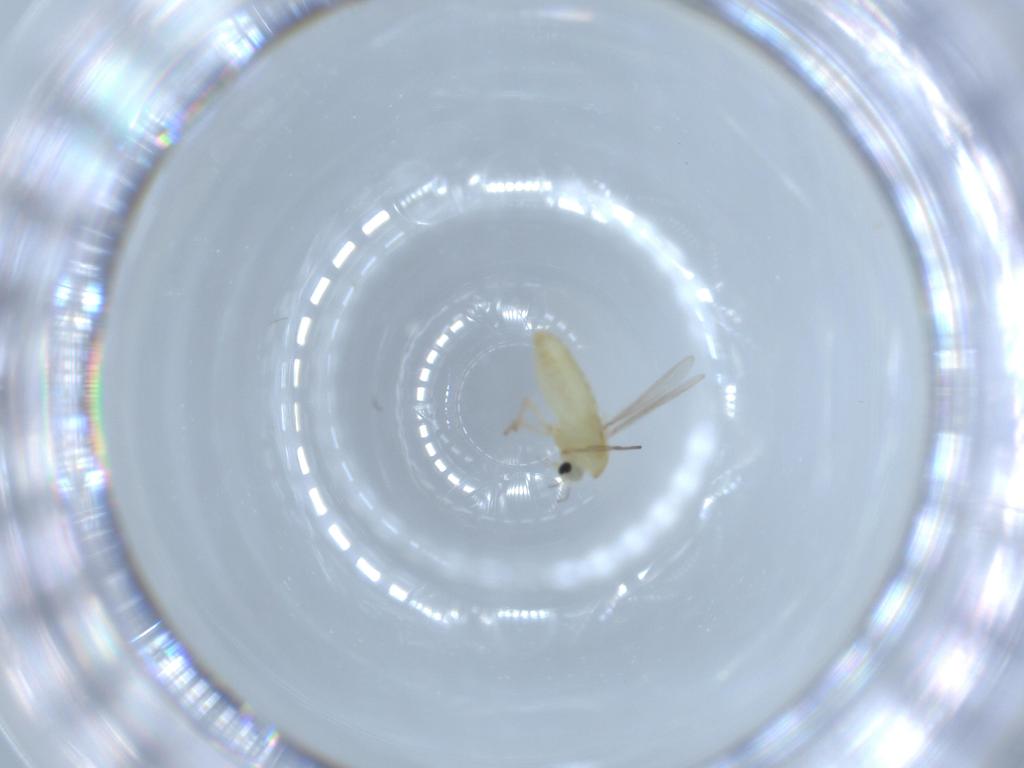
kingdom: Animalia
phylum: Arthropoda
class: Insecta
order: Diptera
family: Chironomidae
